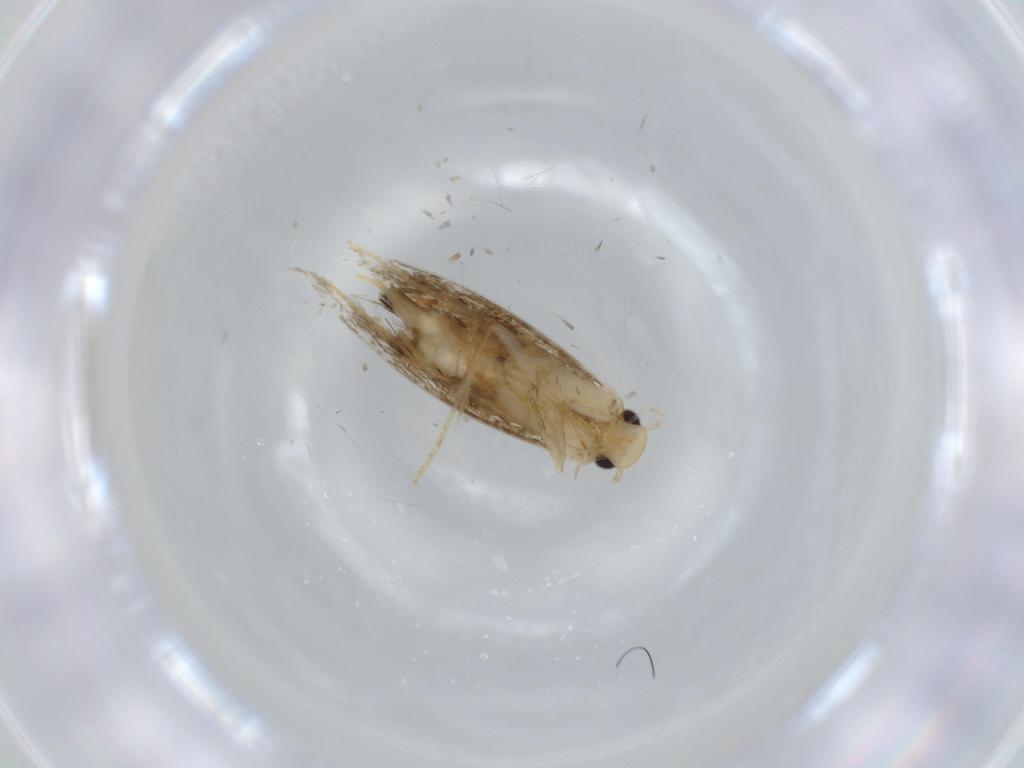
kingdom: Animalia
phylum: Arthropoda
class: Insecta
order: Lepidoptera
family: Tineidae
